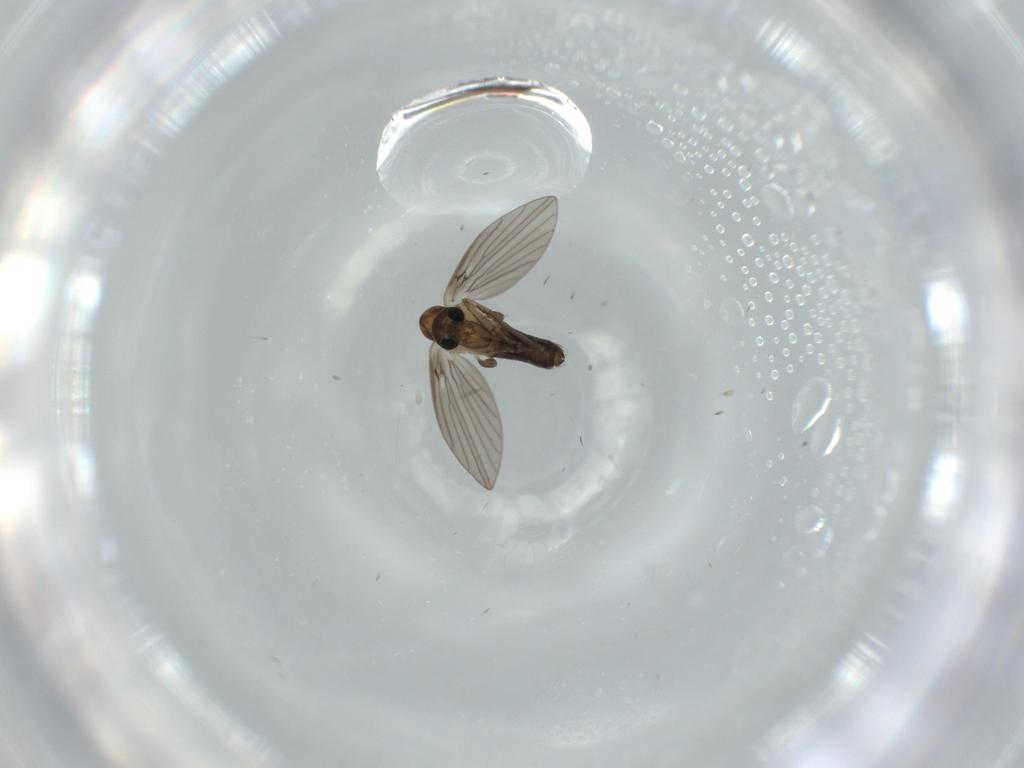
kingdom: Animalia
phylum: Arthropoda
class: Insecta
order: Diptera
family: Psychodidae
